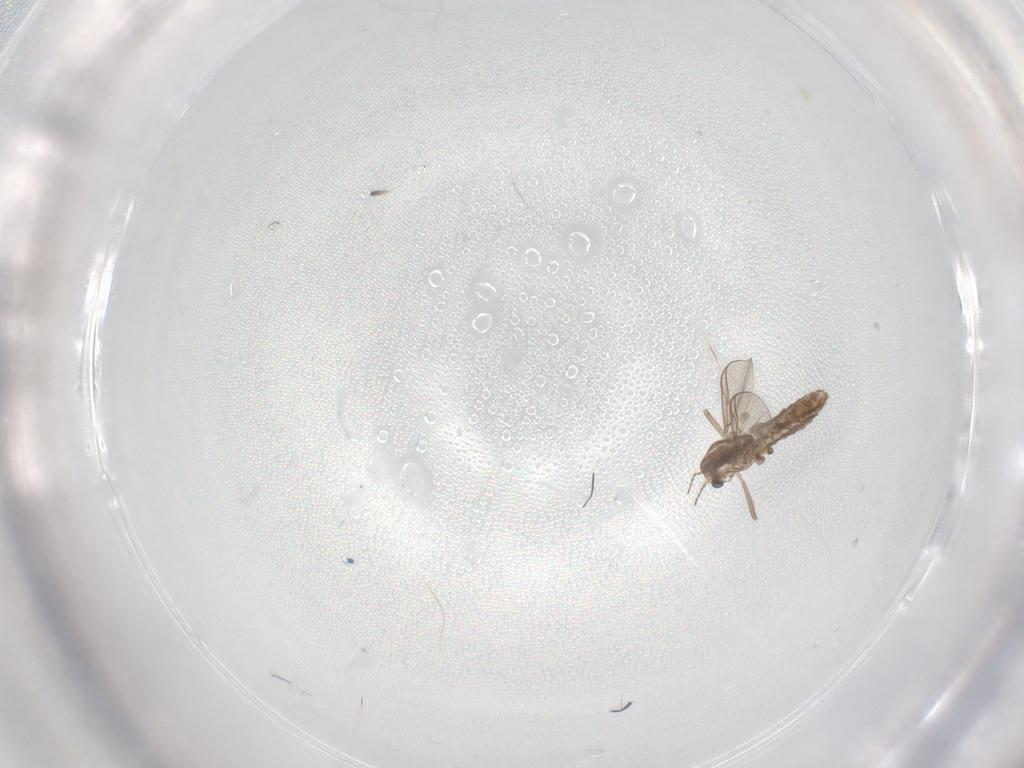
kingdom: Animalia
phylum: Arthropoda
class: Insecta
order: Diptera
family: Chironomidae
